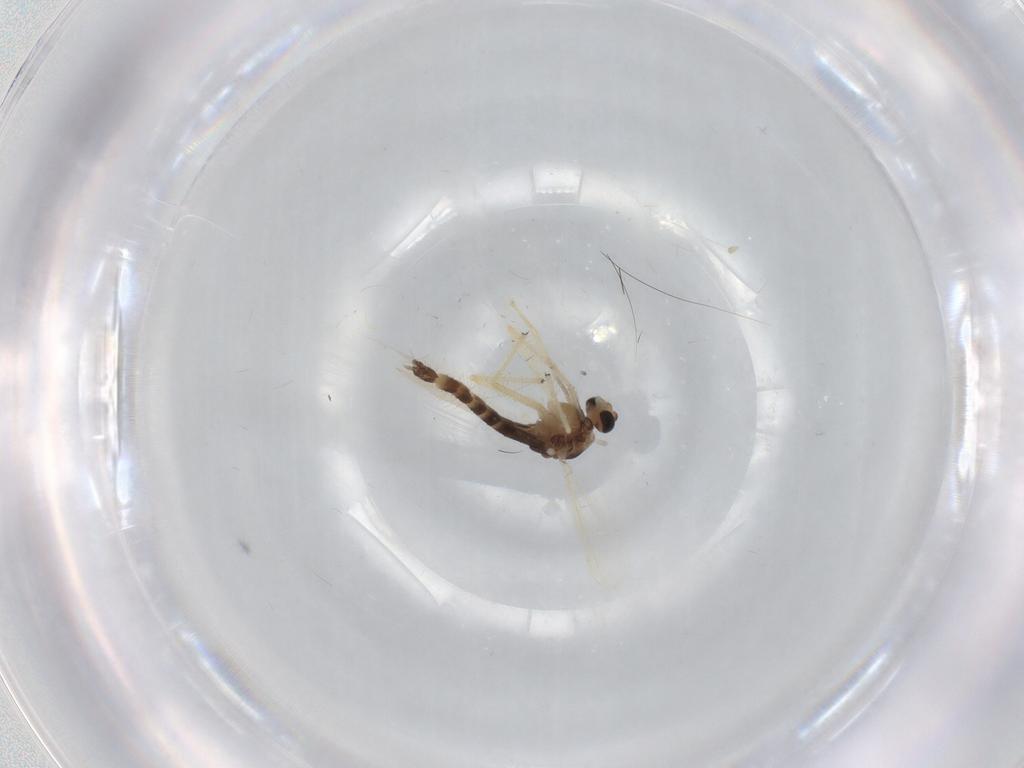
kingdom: Animalia
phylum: Arthropoda
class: Insecta
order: Diptera
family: Chironomidae
